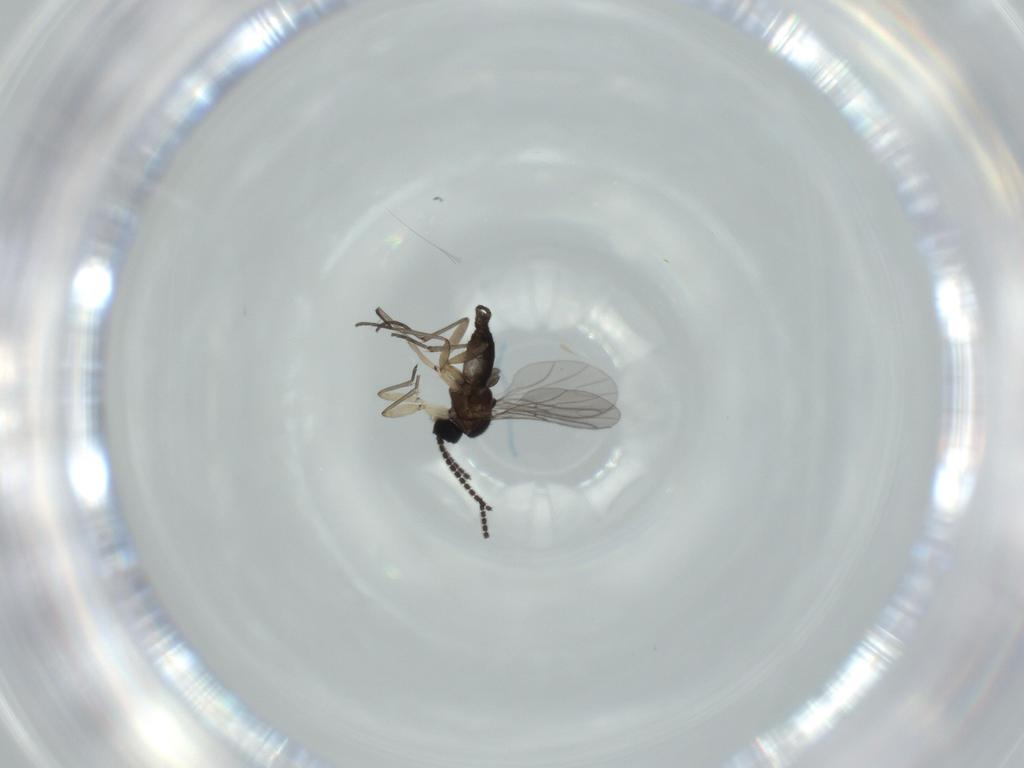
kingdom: Animalia
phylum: Arthropoda
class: Insecta
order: Diptera
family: Sciaridae
